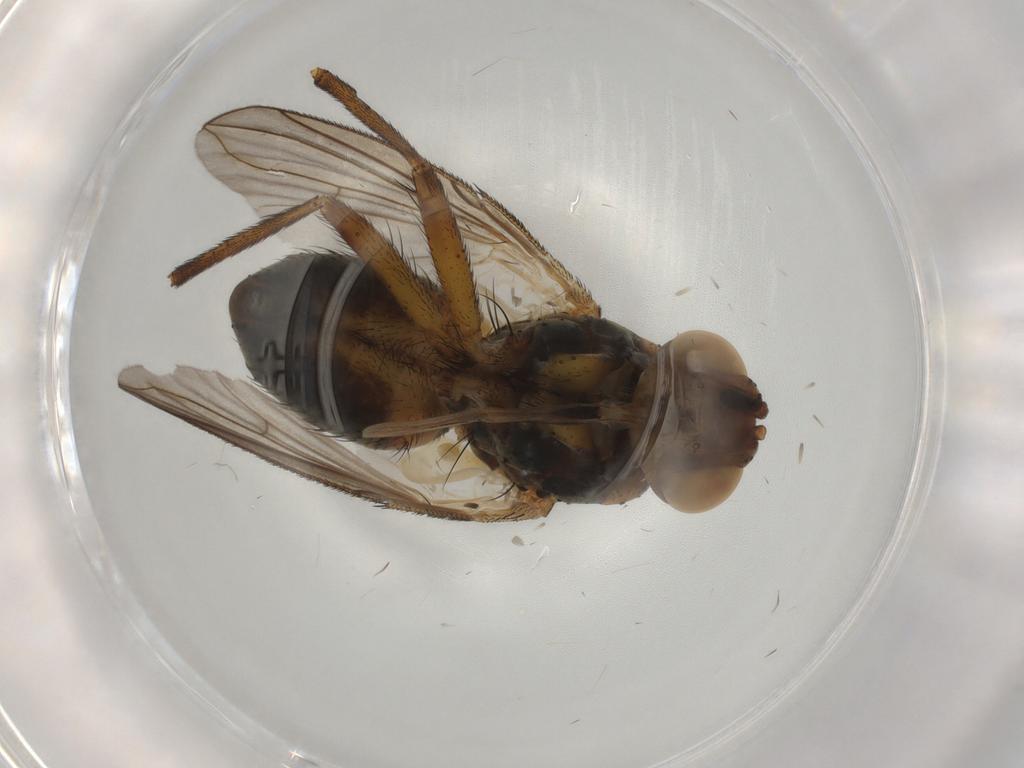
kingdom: Animalia
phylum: Arthropoda
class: Insecta
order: Diptera
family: Tachinidae
